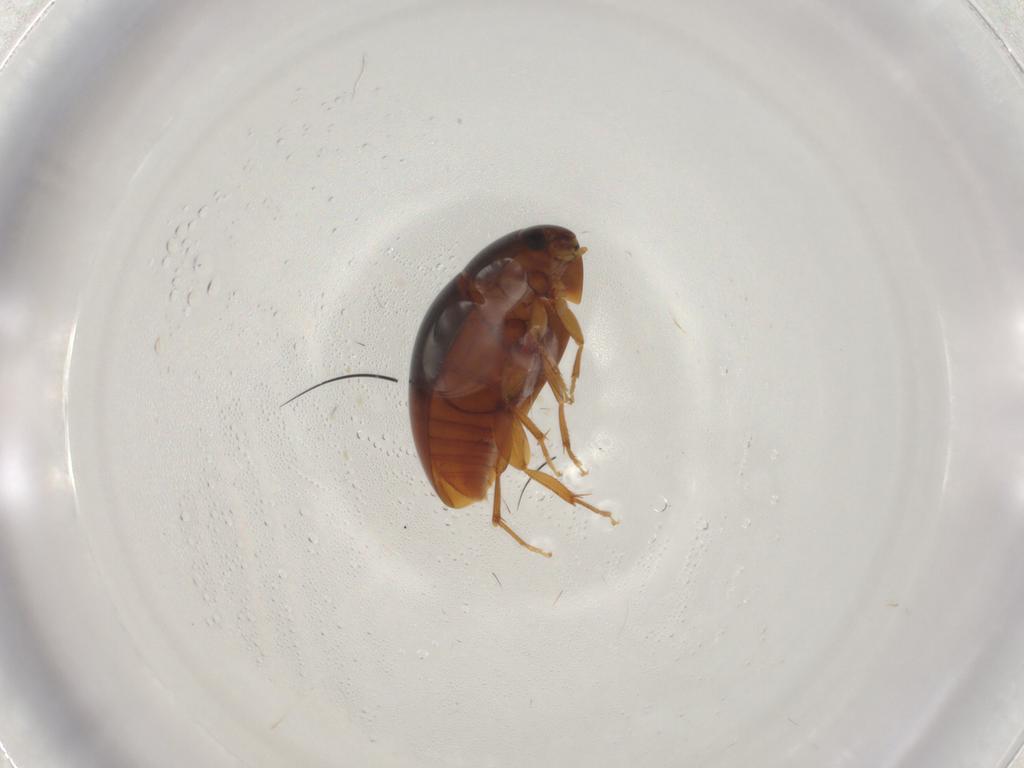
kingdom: Animalia
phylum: Arthropoda
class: Insecta
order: Coleoptera
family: Phalacridae
